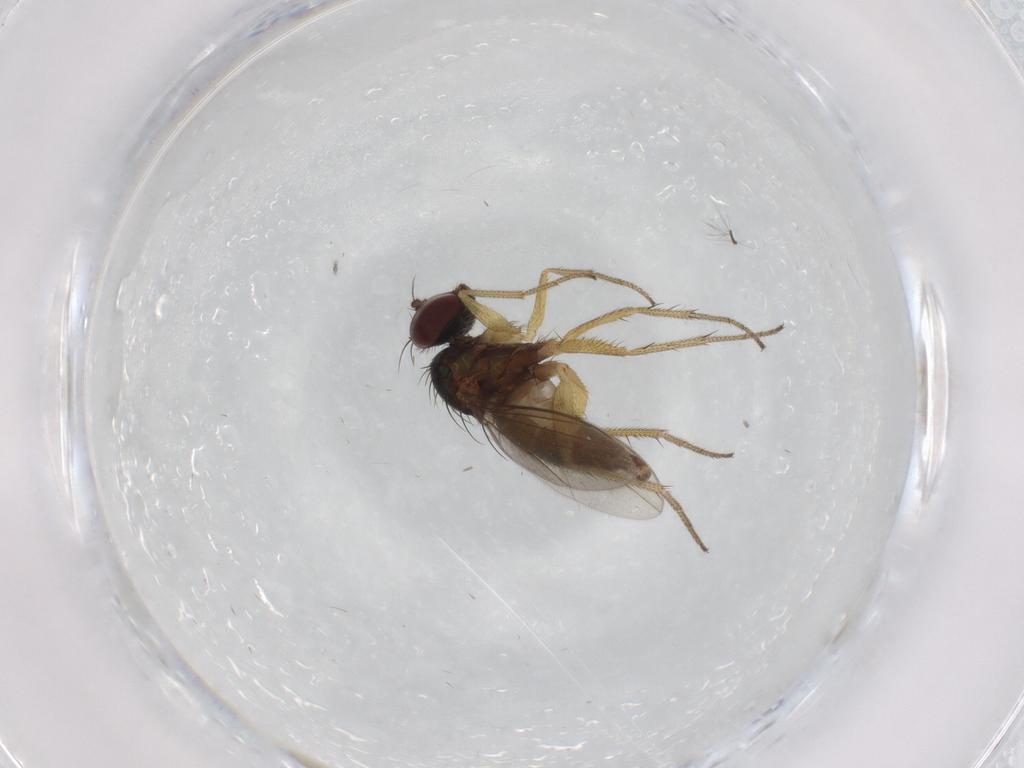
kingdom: Animalia
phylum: Arthropoda
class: Insecta
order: Diptera
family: Dolichopodidae
